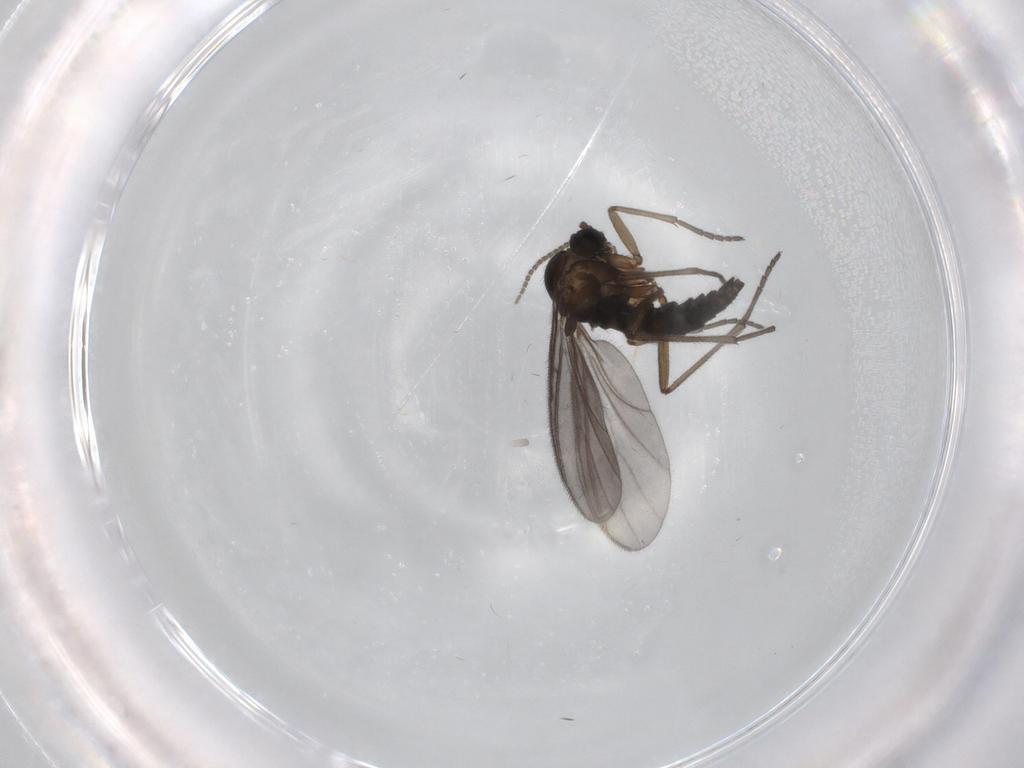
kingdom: Animalia
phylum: Arthropoda
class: Insecta
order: Diptera
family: Sciaridae
